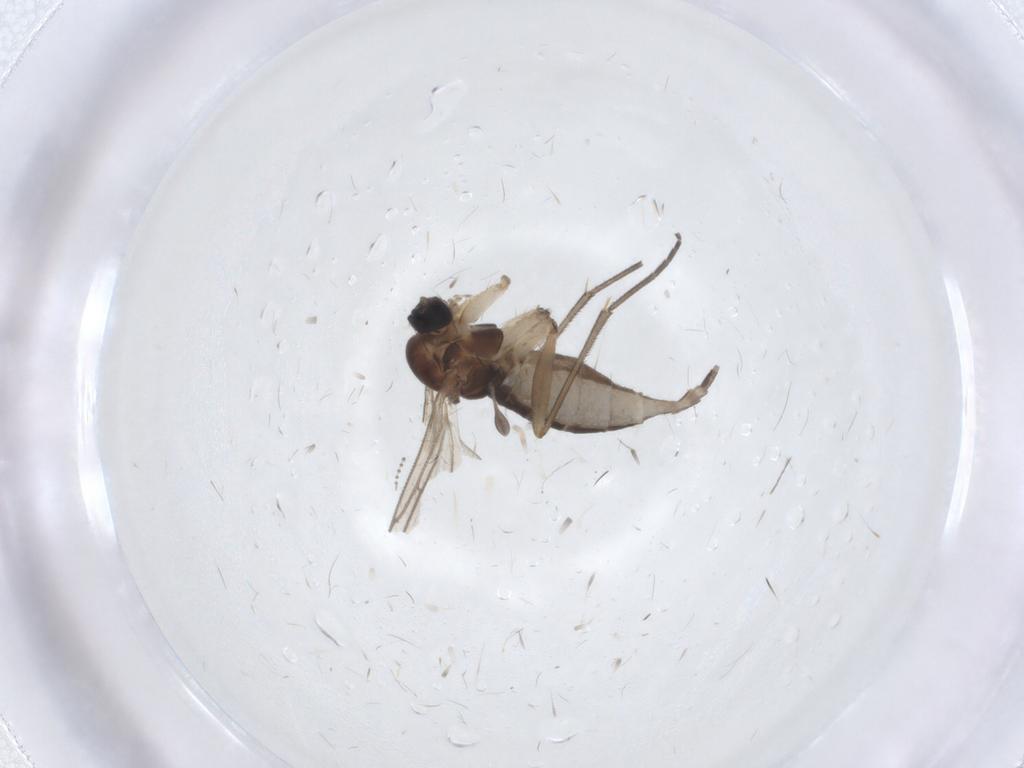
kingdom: Animalia
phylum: Arthropoda
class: Insecta
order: Diptera
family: Sciaridae
